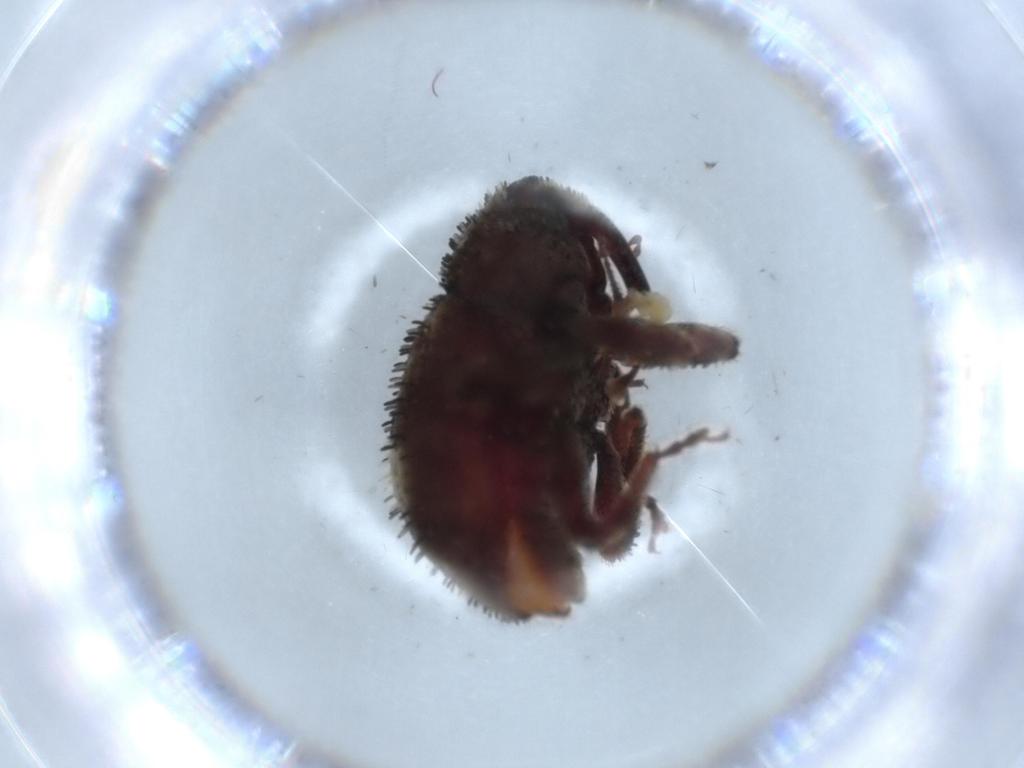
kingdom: Animalia
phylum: Arthropoda
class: Insecta
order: Coleoptera
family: Curculionidae
